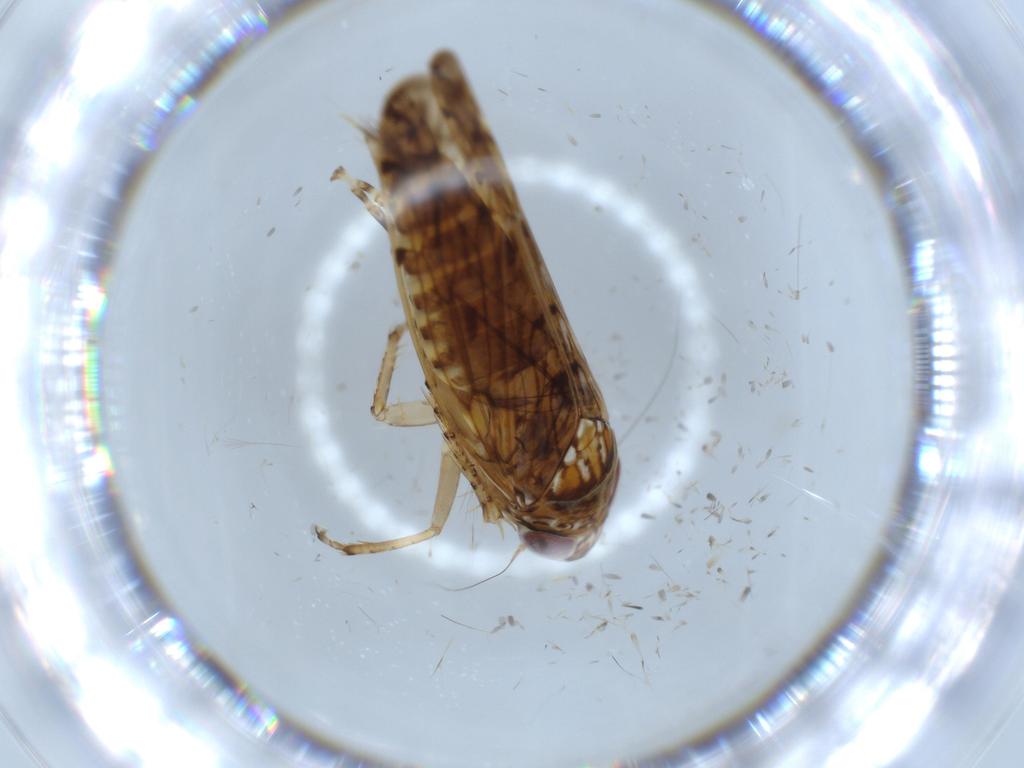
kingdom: Animalia
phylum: Arthropoda
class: Insecta
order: Hemiptera
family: Cicadellidae
